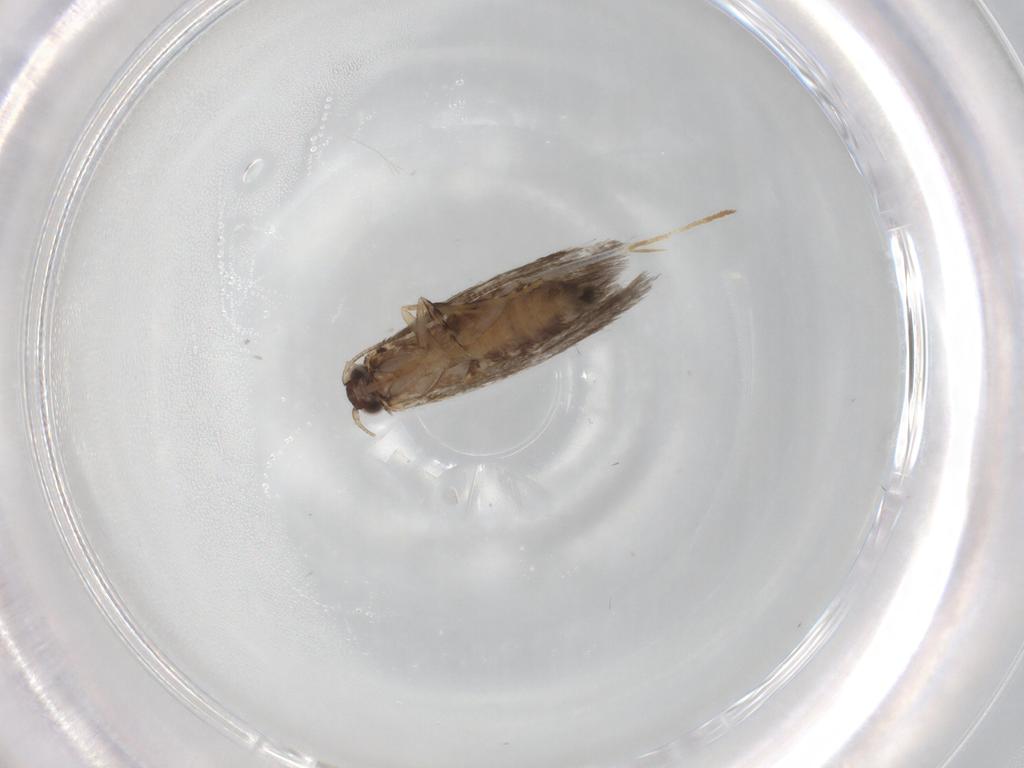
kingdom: Animalia
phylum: Arthropoda
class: Insecta
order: Lepidoptera
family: Tineidae
